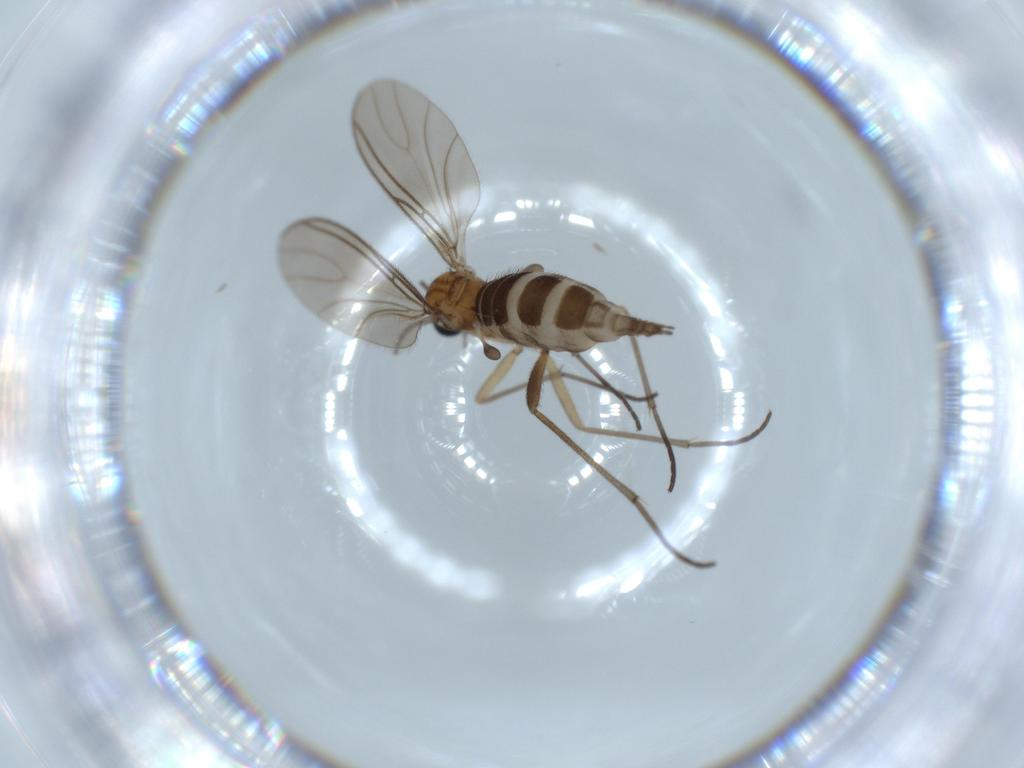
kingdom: Animalia
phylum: Arthropoda
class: Insecta
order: Diptera
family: Sciaridae
